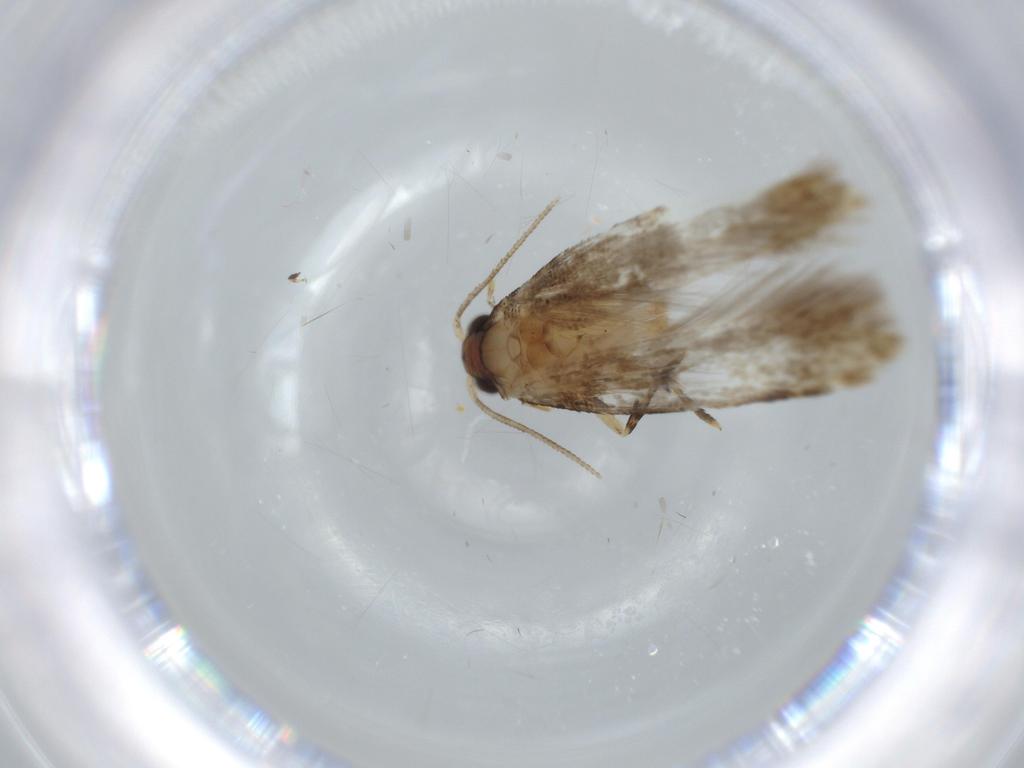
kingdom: Animalia
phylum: Arthropoda
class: Insecta
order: Lepidoptera
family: Tineidae
